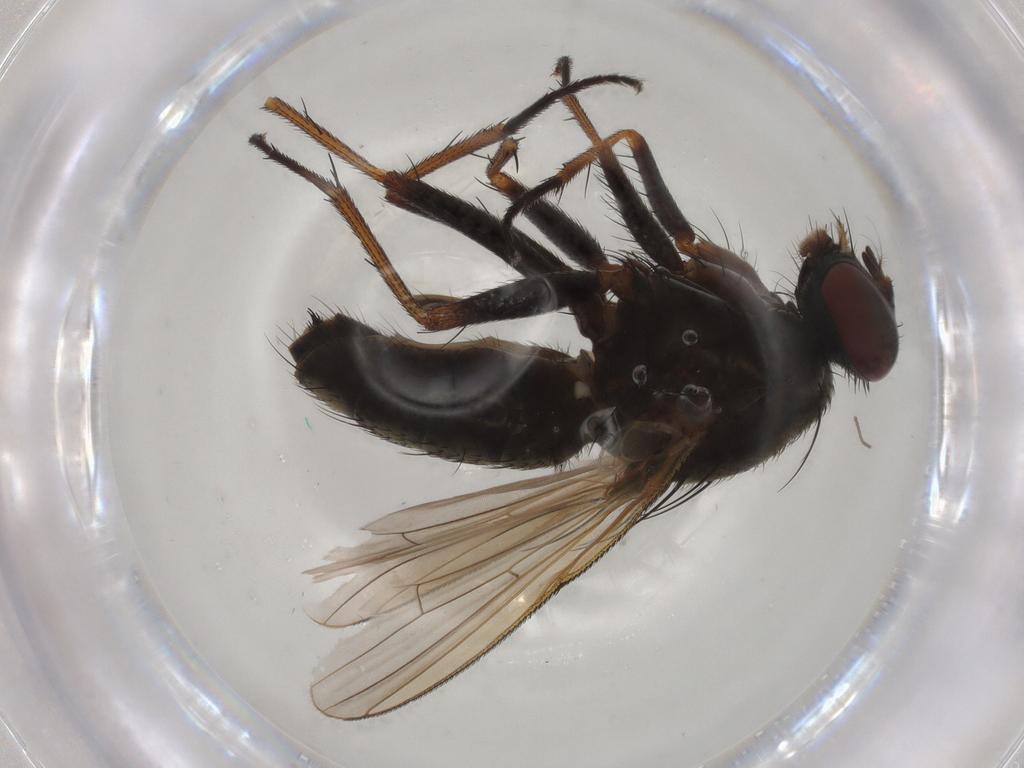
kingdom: Animalia
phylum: Arthropoda
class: Insecta
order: Diptera
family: Muscidae
